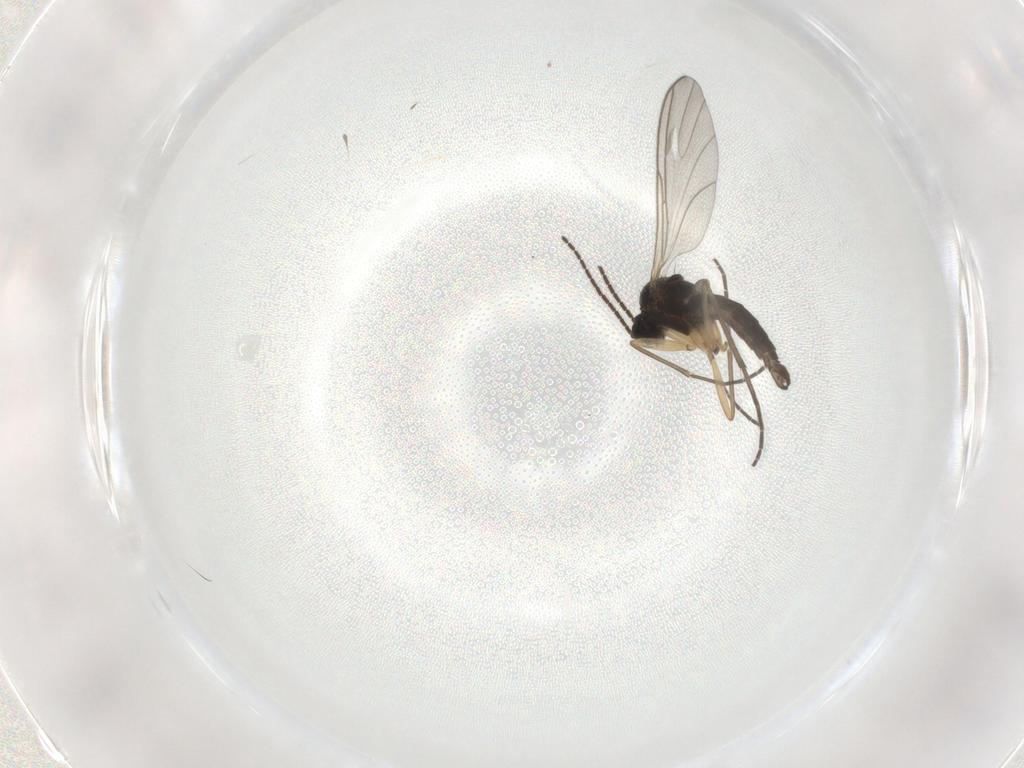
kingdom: Animalia
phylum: Arthropoda
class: Insecta
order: Diptera
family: Sciaridae
